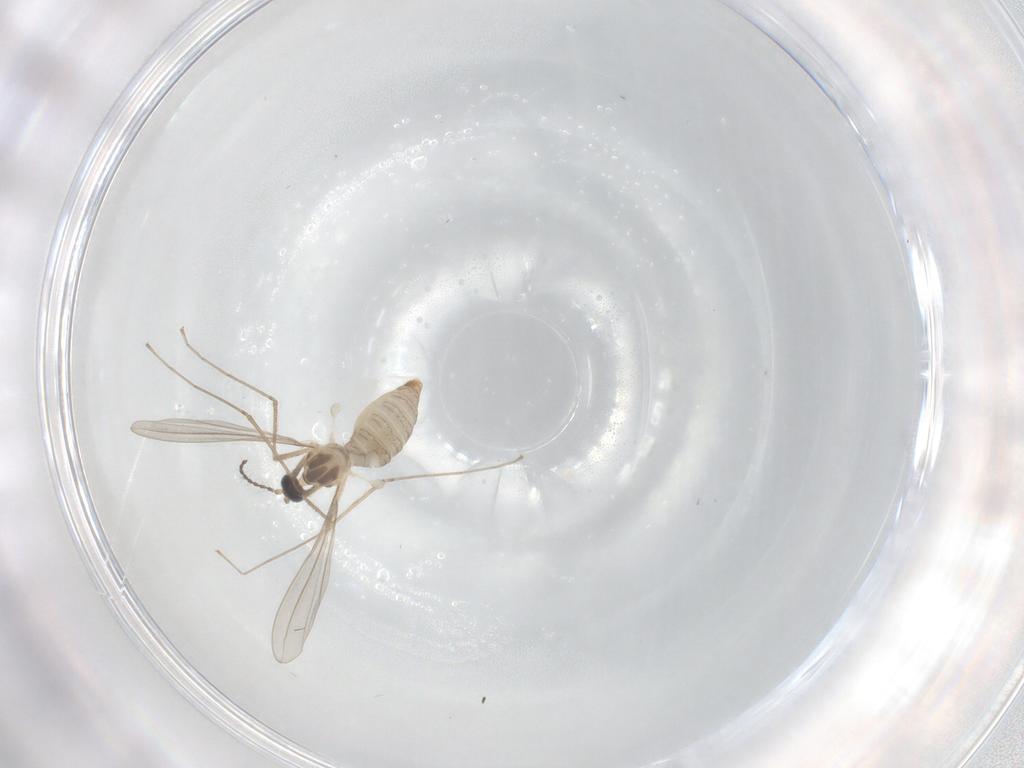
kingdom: Animalia
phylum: Arthropoda
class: Insecta
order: Diptera
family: Cecidomyiidae
